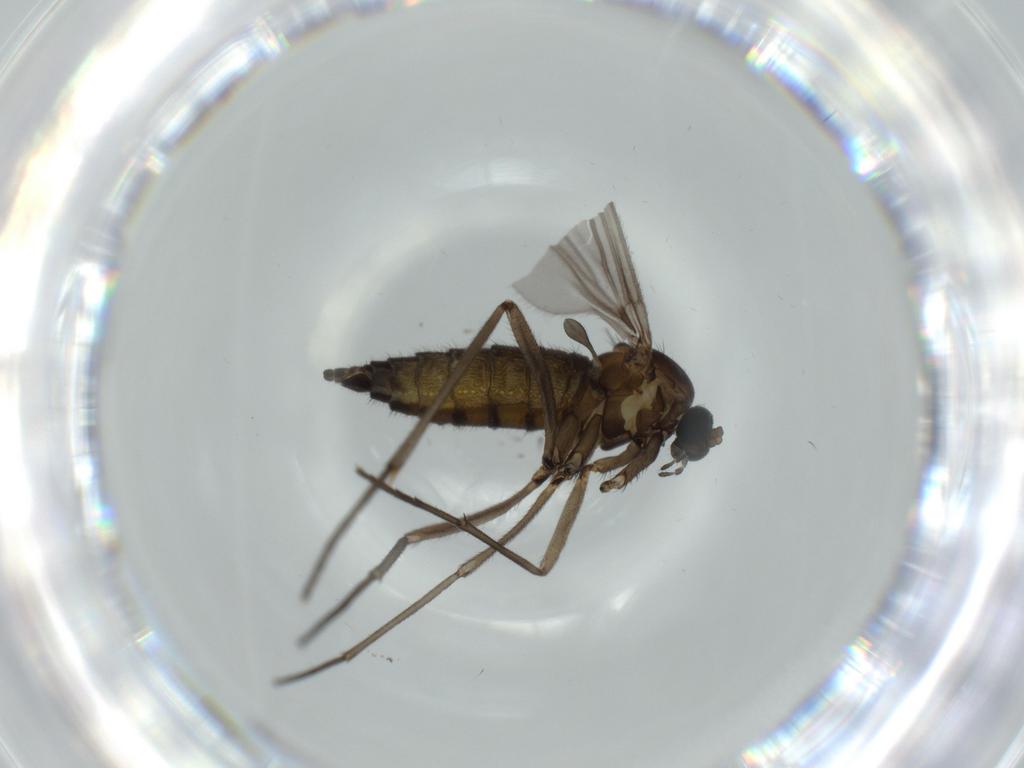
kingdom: Animalia
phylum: Arthropoda
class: Insecta
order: Diptera
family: Sciaridae
